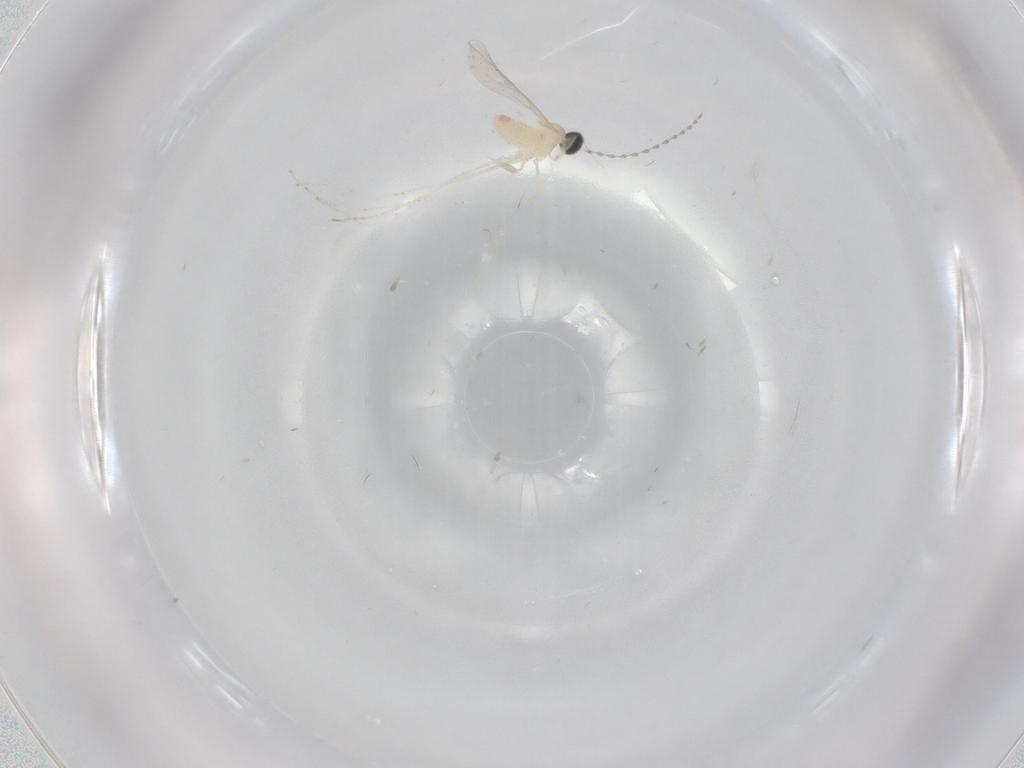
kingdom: Animalia
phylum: Arthropoda
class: Insecta
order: Diptera
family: Cecidomyiidae
